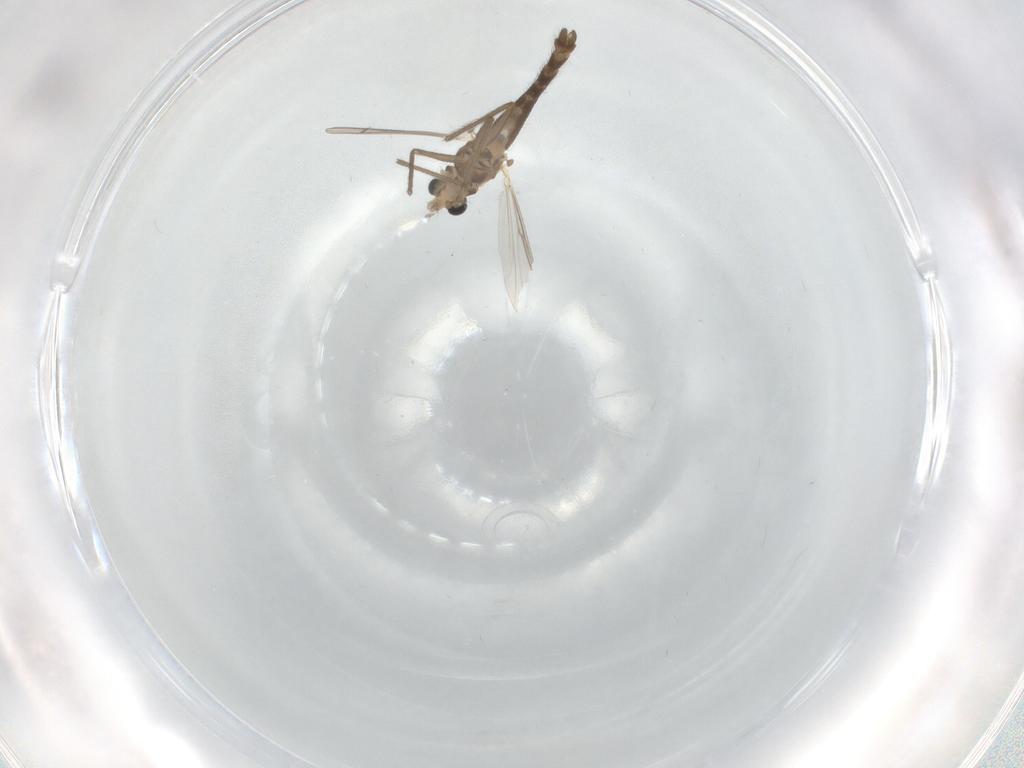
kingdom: Animalia
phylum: Arthropoda
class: Insecta
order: Diptera
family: Chironomidae
